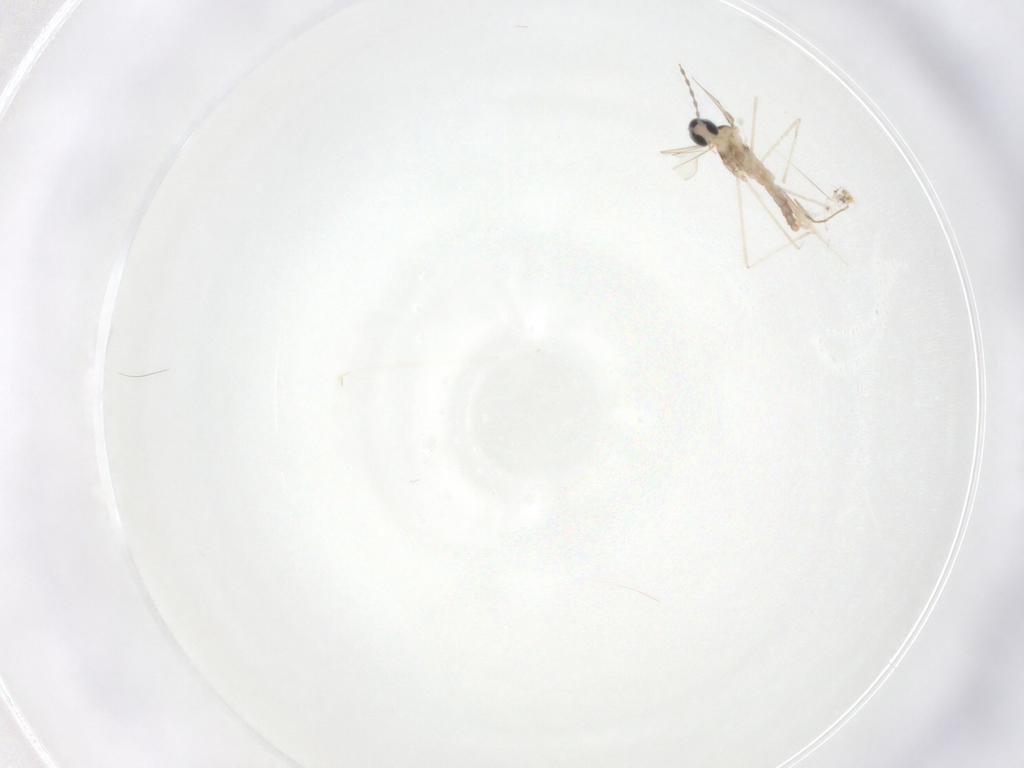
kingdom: Animalia
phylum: Arthropoda
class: Insecta
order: Diptera
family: Cecidomyiidae
